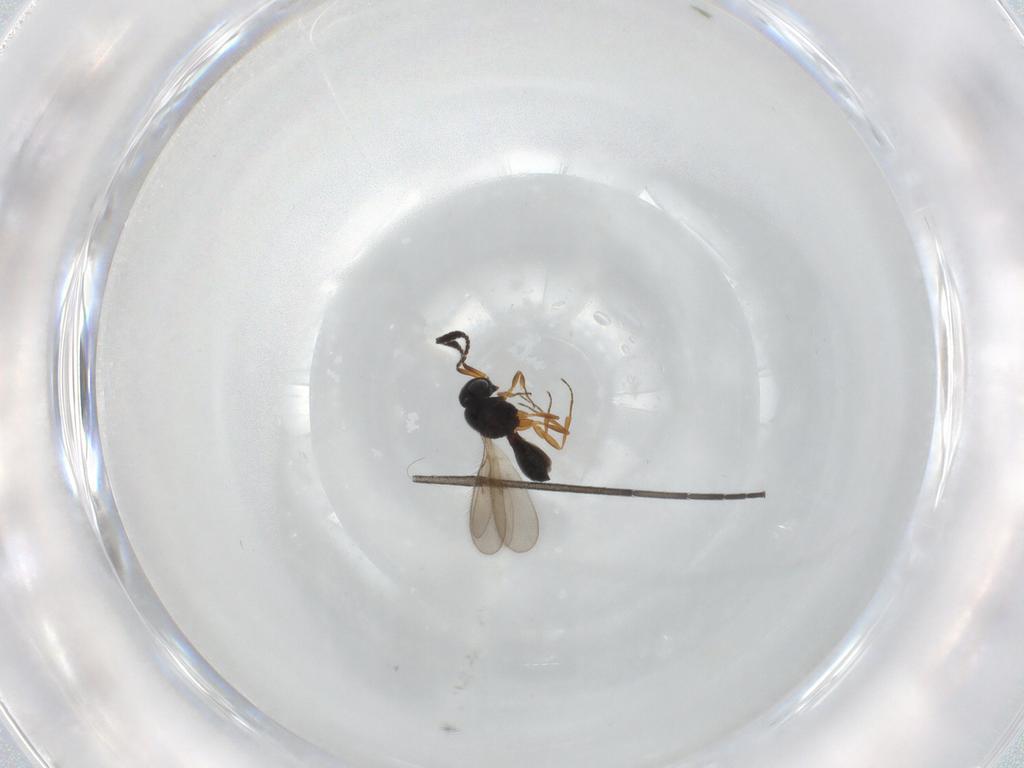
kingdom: Animalia
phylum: Arthropoda
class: Insecta
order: Hymenoptera
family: Scelionidae
